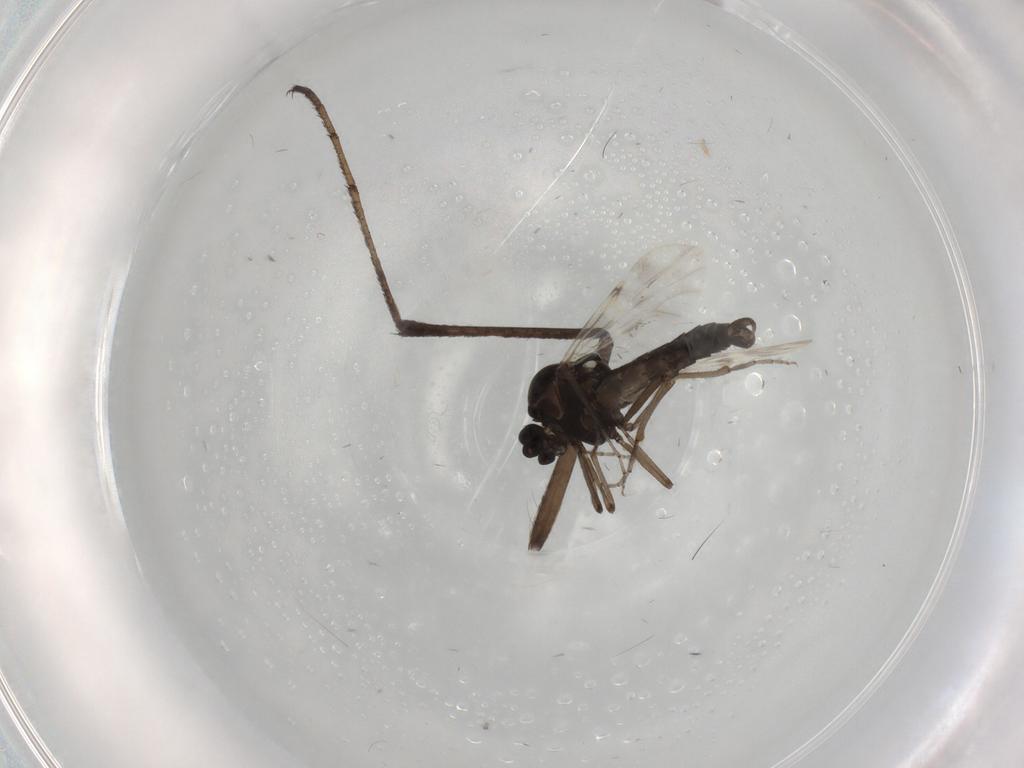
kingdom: Animalia
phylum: Arthropoda
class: Insecta
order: Diptera
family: Culicidae
